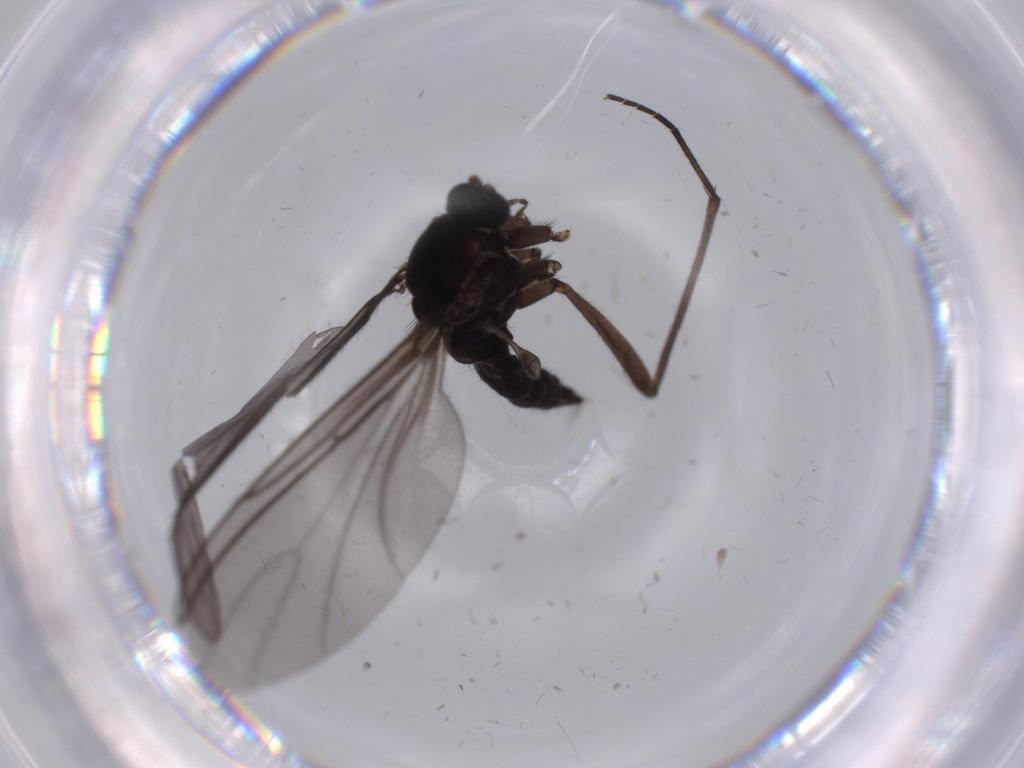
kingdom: Animalia
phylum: Arthropoda
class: Insecta
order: Diptera
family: Sciaridae
